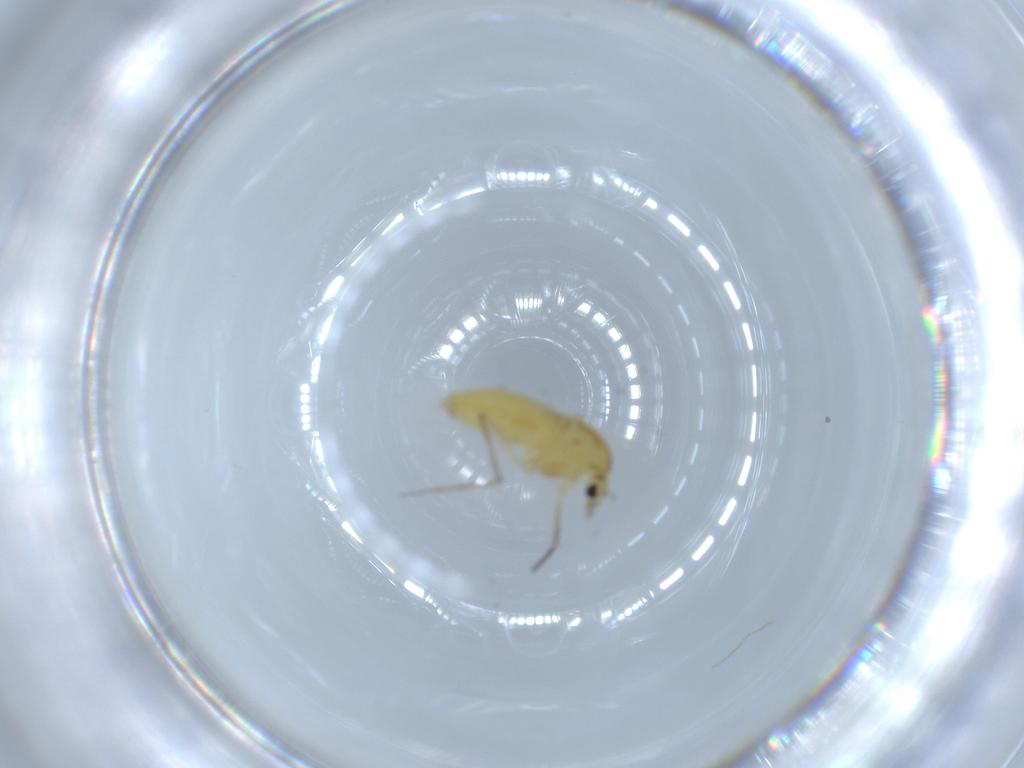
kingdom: Animalia
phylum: Arthropoda
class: Insecta
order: Diptera
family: Chironomidae
